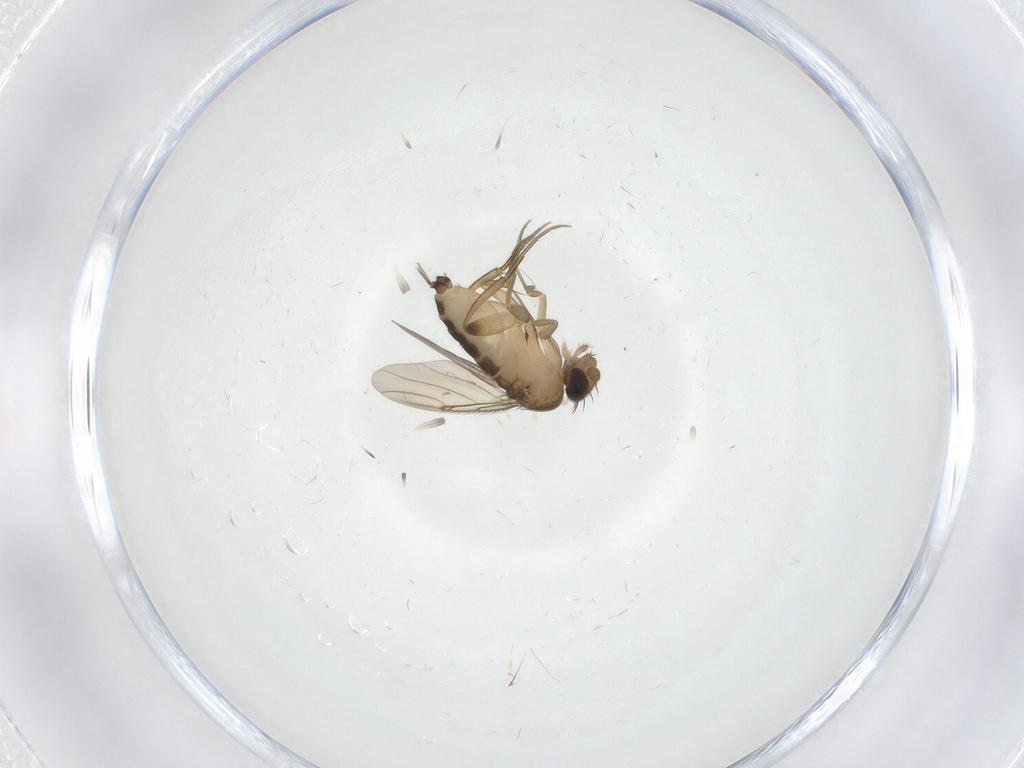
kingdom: Animalia
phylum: Arthropoda
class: Insecta
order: Diptera
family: Phoridae
